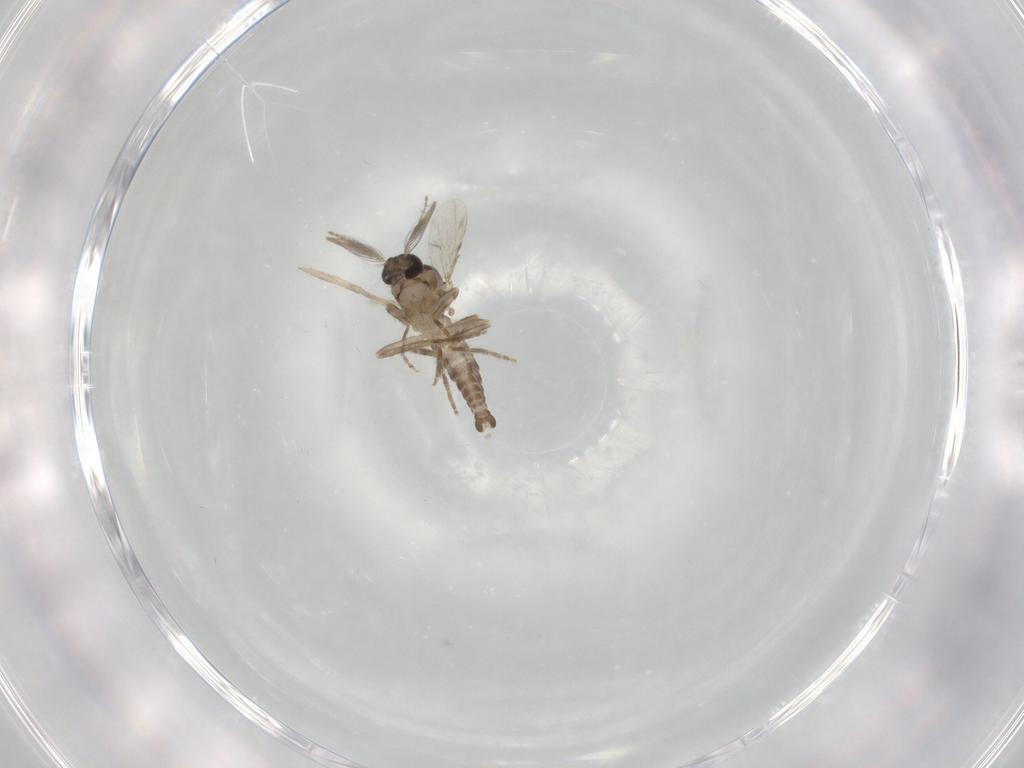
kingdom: Animalia
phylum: Arthropoda
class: Insecta
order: Diptera
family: Ceratopogonidae
